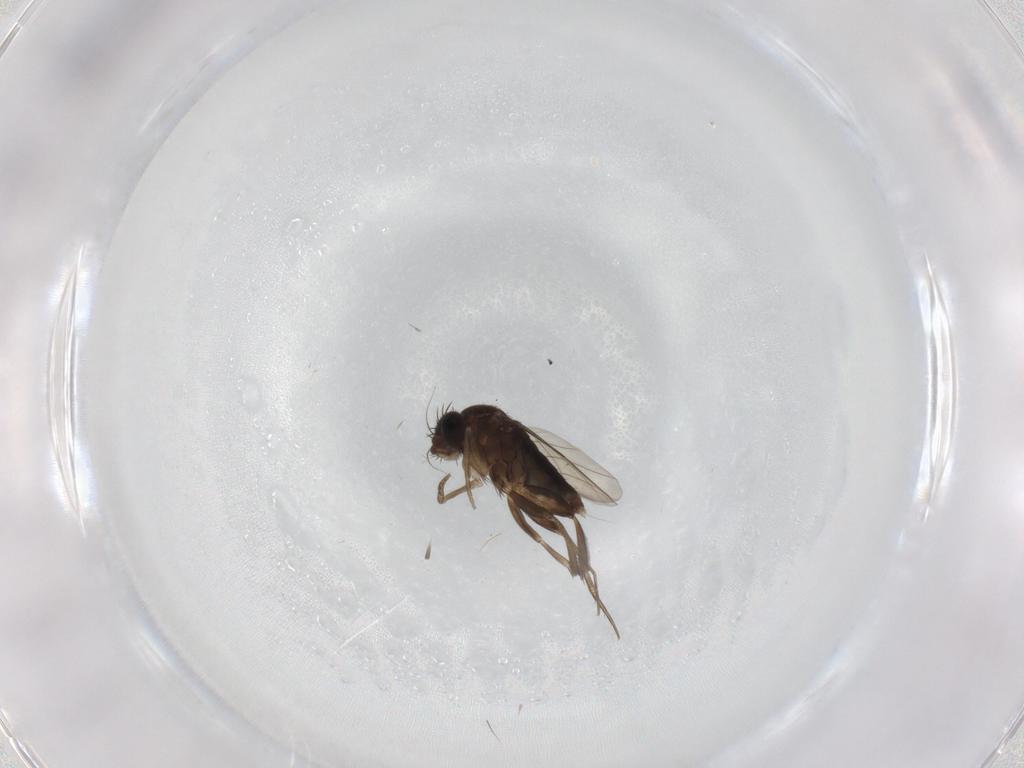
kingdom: Animalia
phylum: Arthropoda
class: Insecta
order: Diptera
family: Phoridae
